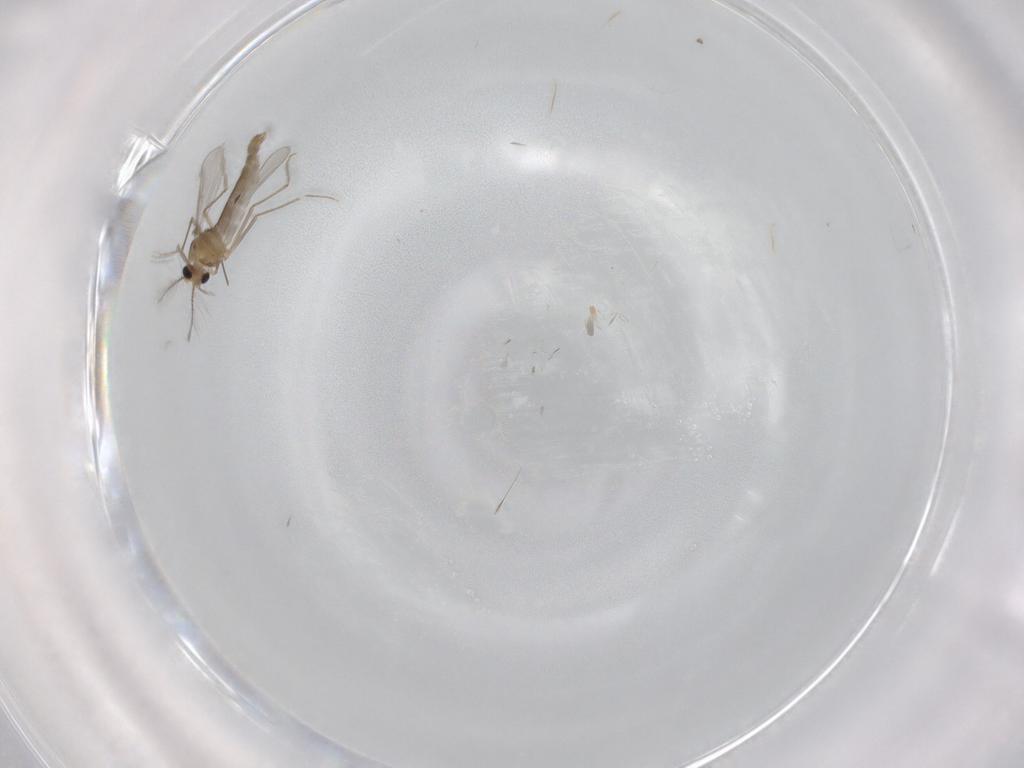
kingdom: Animalia
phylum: Arthropoda
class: Insecta
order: Diptera
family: Chironomidae
